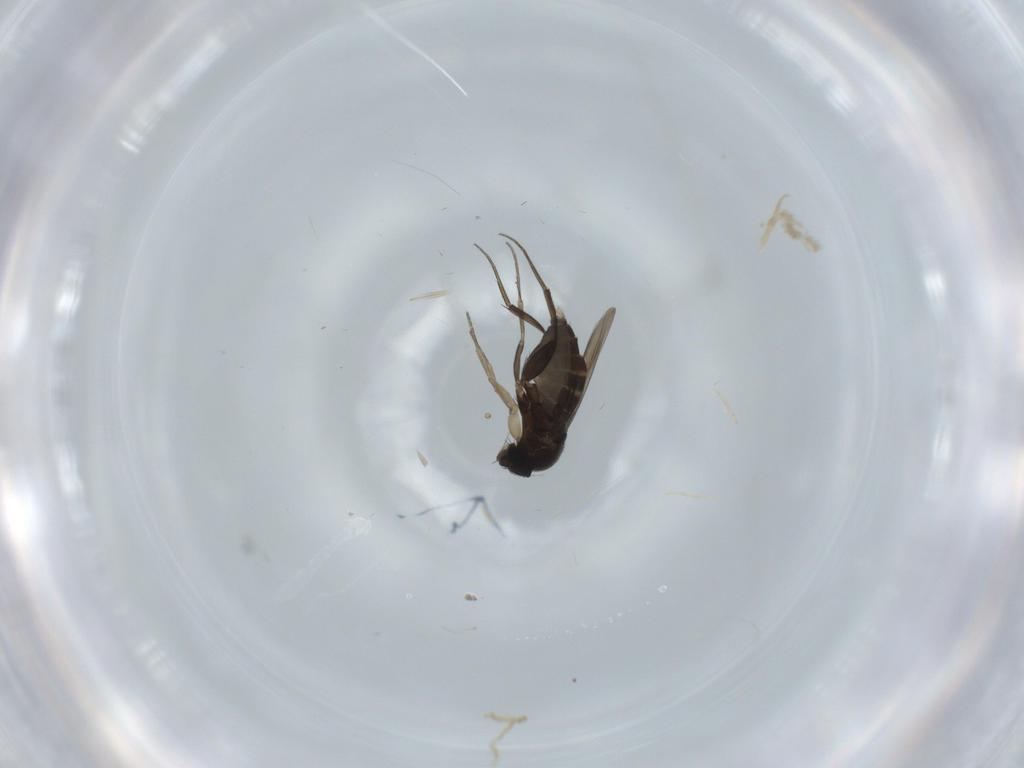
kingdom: Animalia
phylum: Arthropoda
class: Insecta
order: Diptera
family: Phoridae
